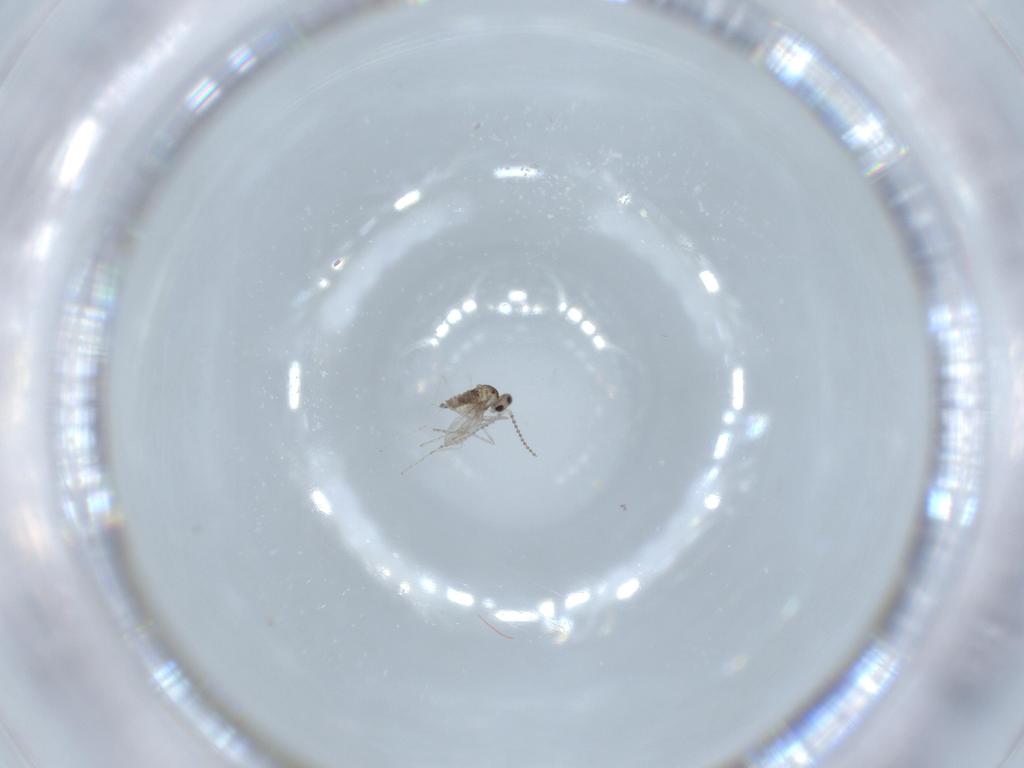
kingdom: Animalia
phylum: Arthropoda
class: Insecta
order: Diptera
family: Cecidomyiidae
